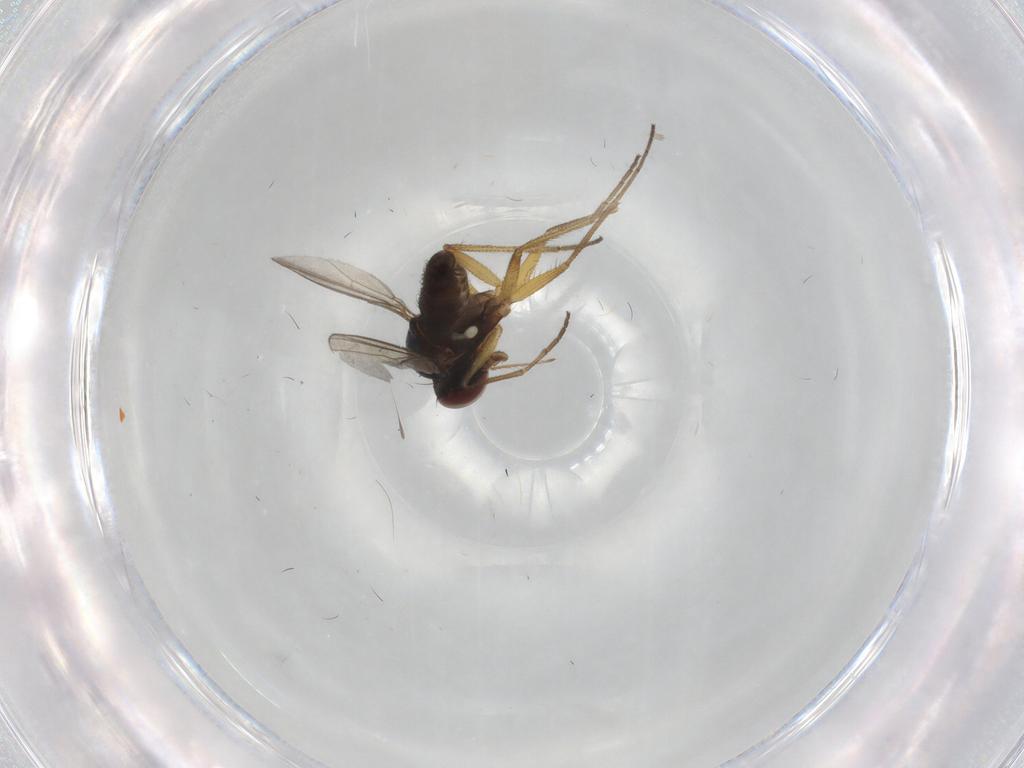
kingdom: Animalia
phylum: Arthropoda
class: Insecta
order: Diptera
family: Dolichopodidae
